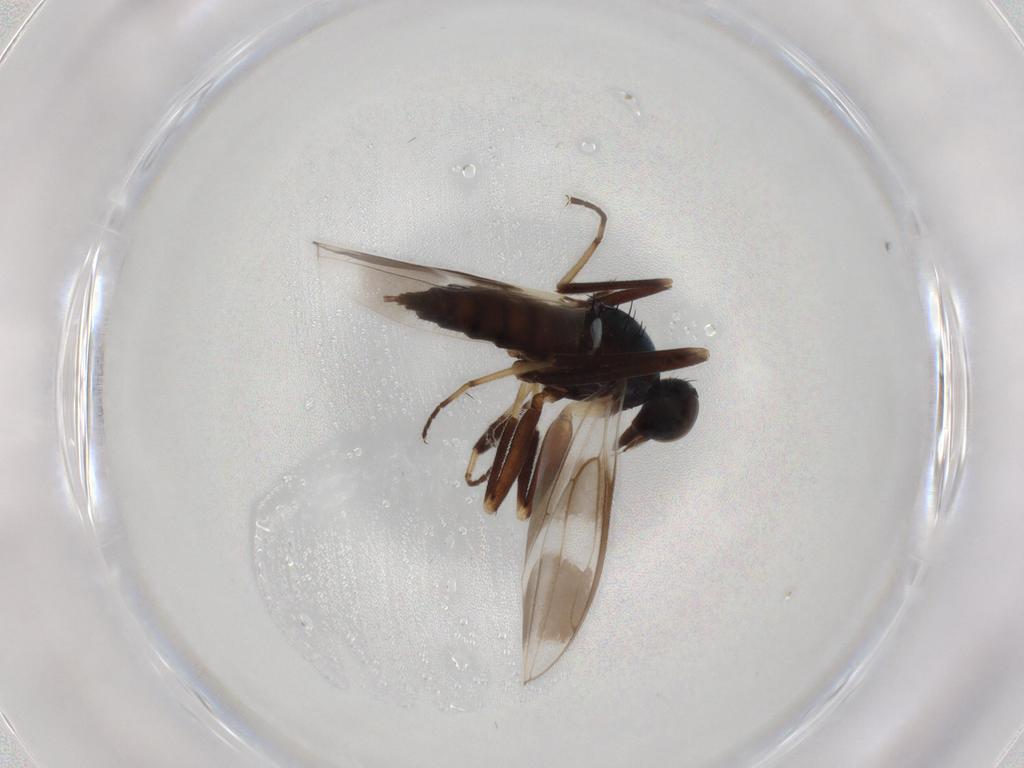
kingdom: Animalia
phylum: Arthropoda
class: Insecta
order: Diptera
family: Hybotidae
